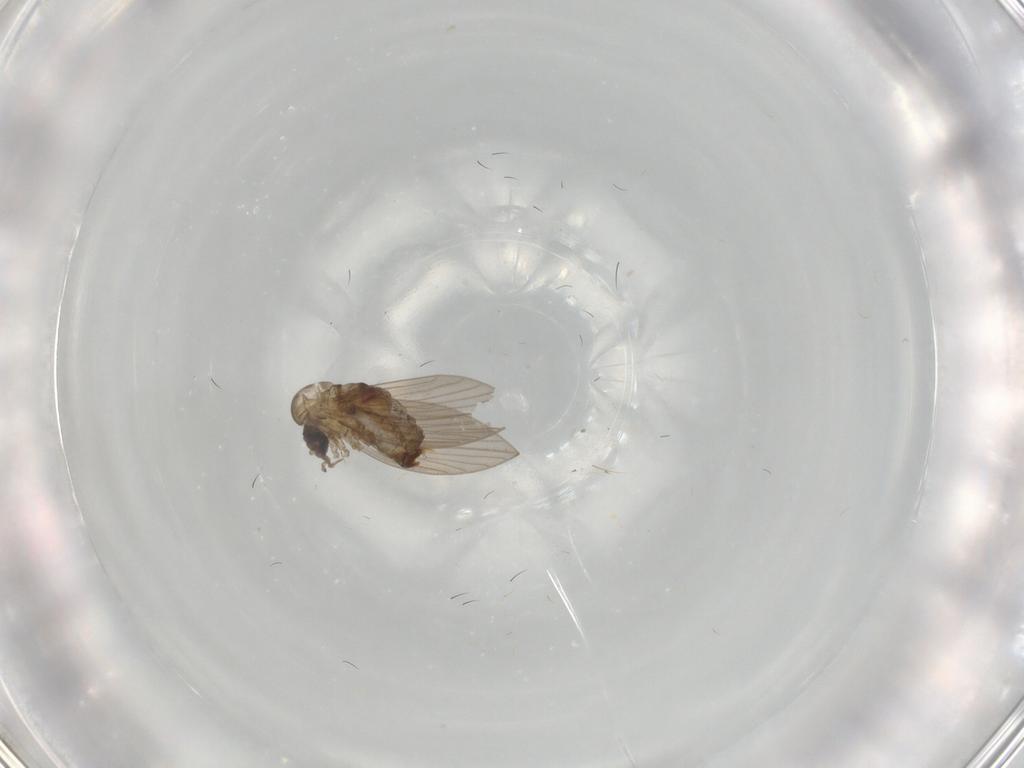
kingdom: Animalia
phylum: Arthropoda
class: Insecta
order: Diptera
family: Psychodidae
